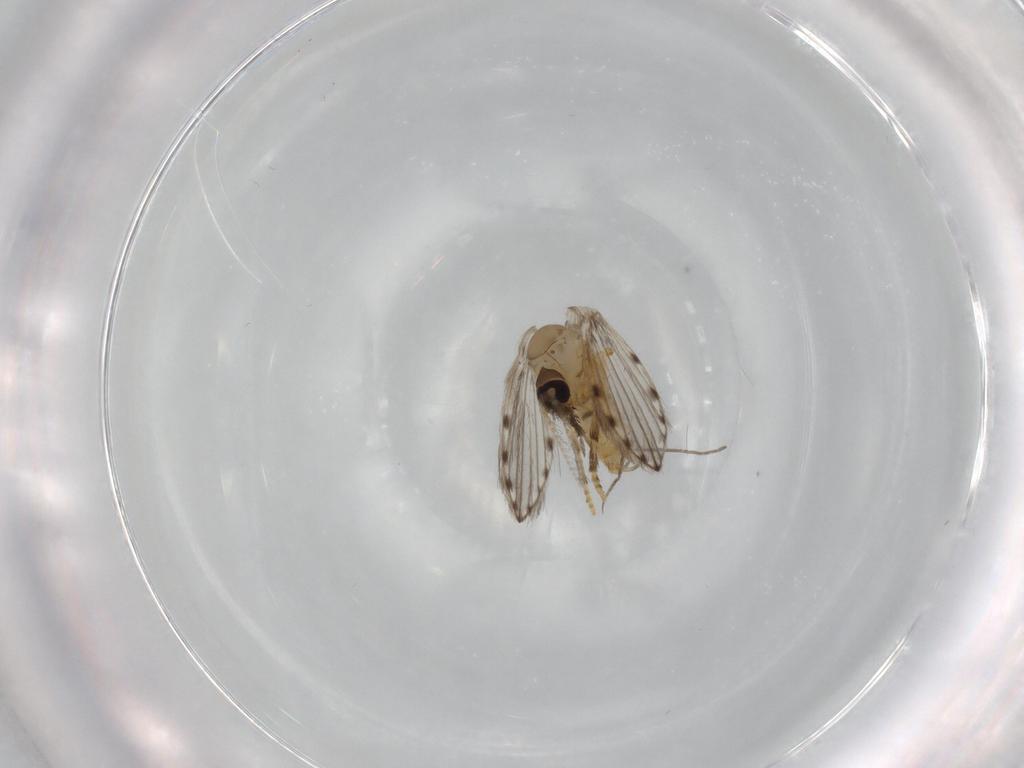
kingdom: Animalia
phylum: Arthropoda
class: Insecta
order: Diptera
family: Psychodidae
